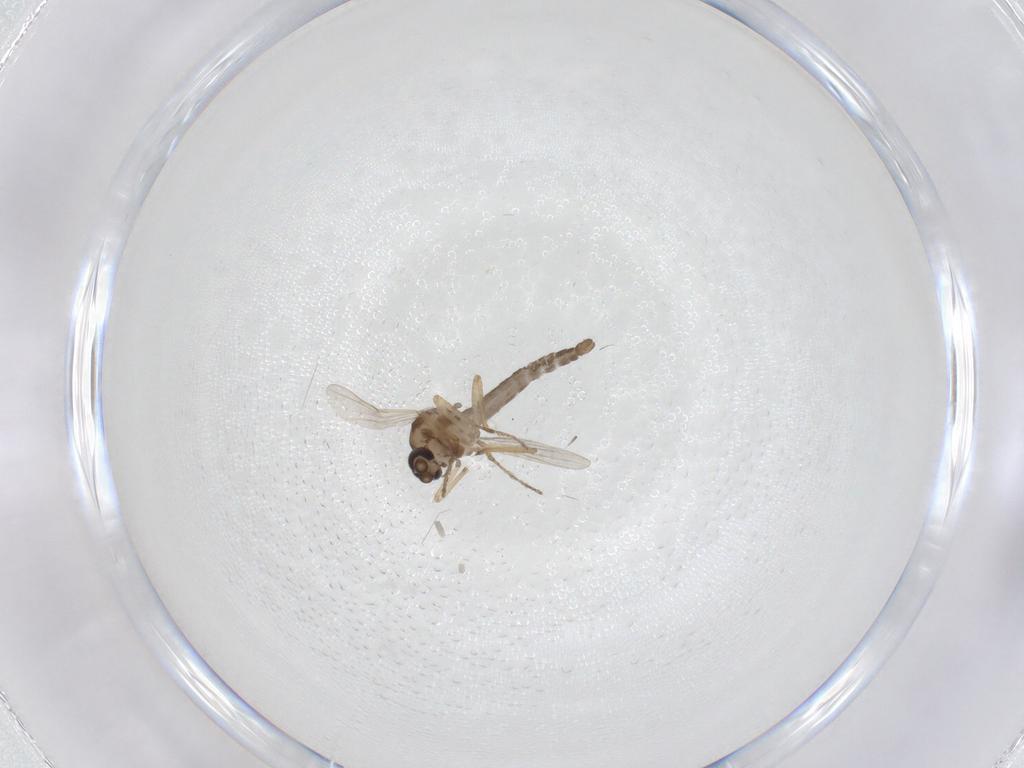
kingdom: Animalia
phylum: Arthropoda
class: Insecta
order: Diptera
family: Ceratopogonidae
